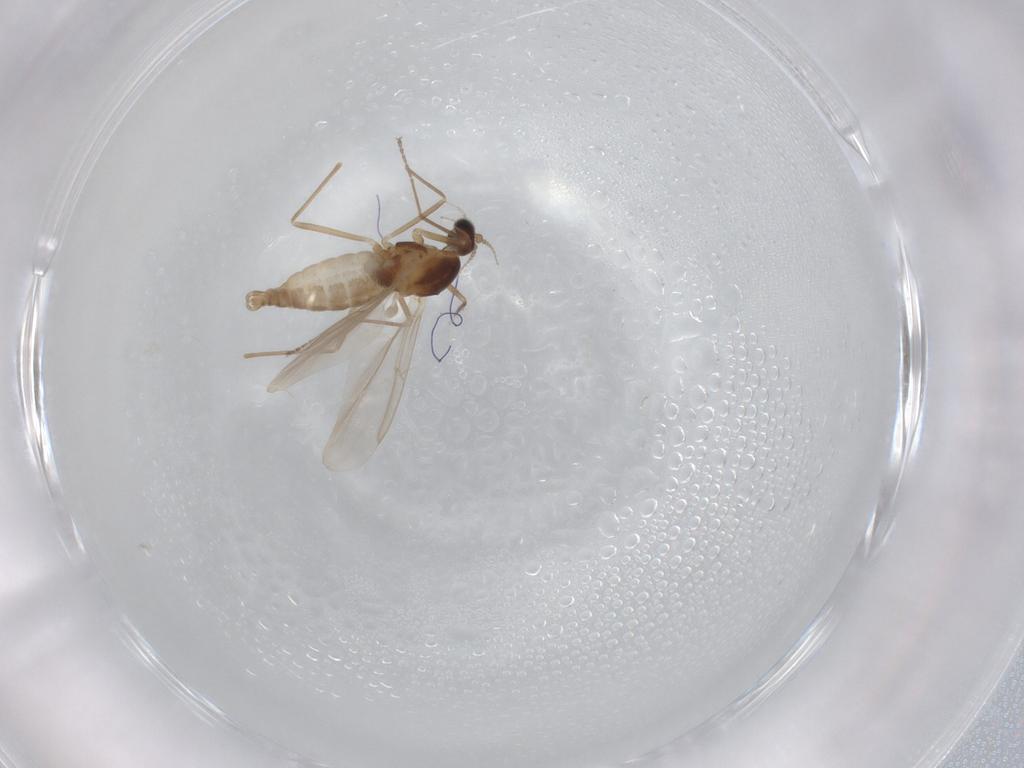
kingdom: Animalia
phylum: Arthropoda
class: Insecta
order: Diptera
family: Cecidomyiidae
